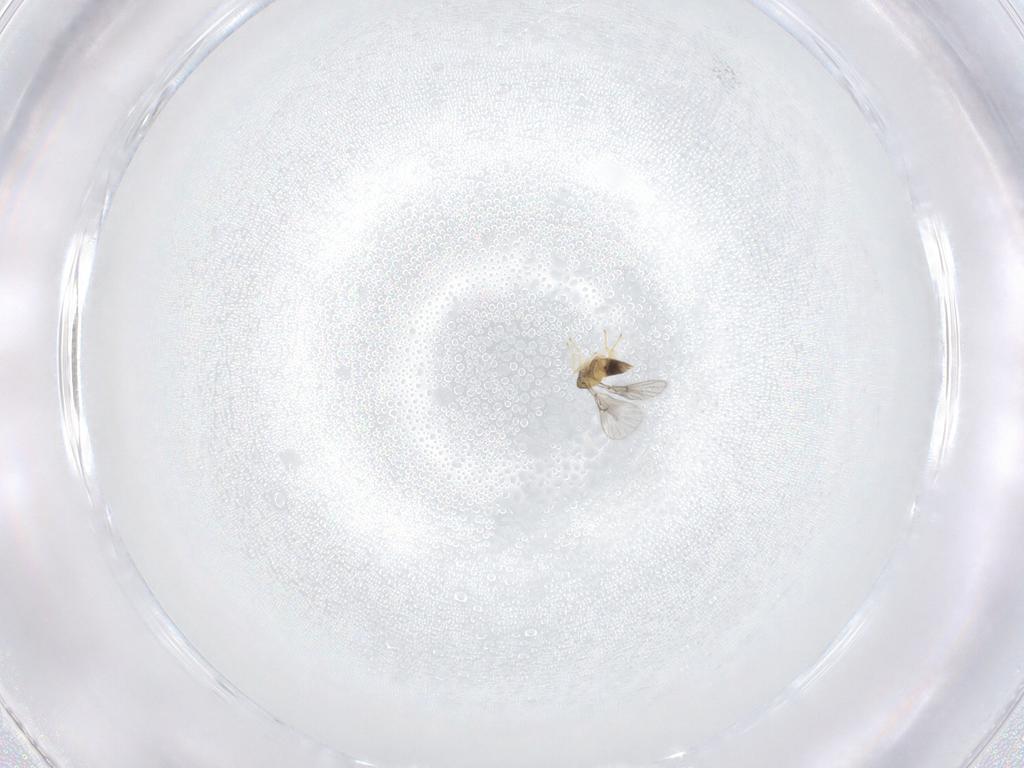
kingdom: Animalia
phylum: Arthropoda
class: Insecta
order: Hymenoptera
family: Trichogrammatidae
